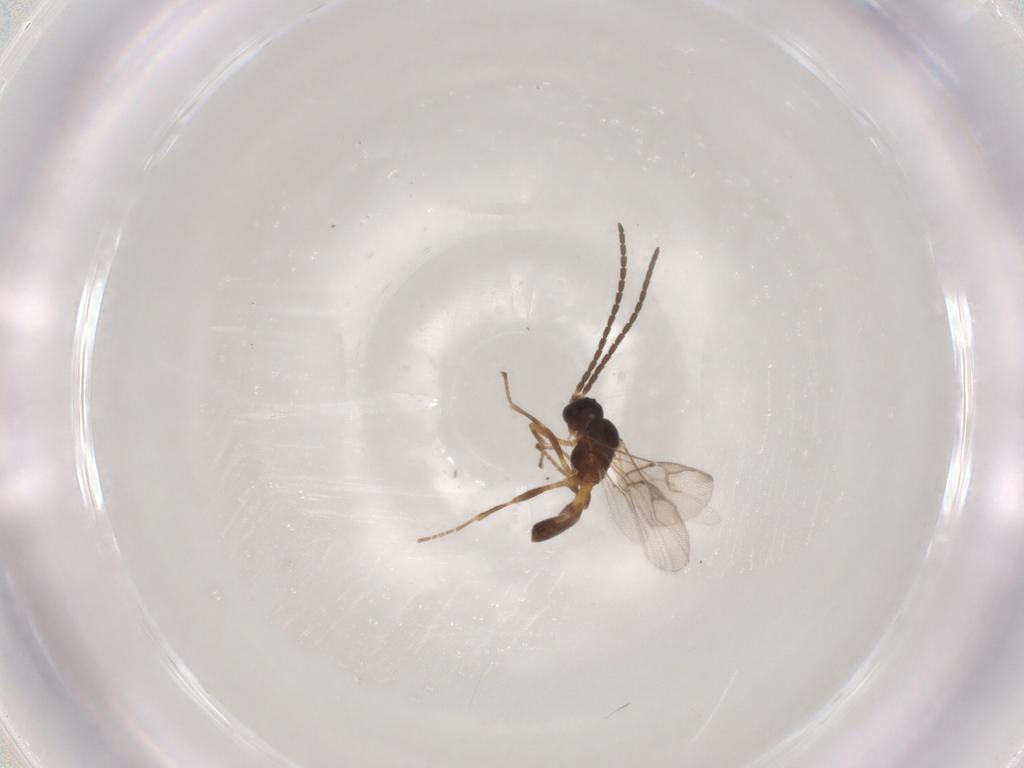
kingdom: Animalia
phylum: Arthropoda
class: Insecta
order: Hymenoptera
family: Braconidae
